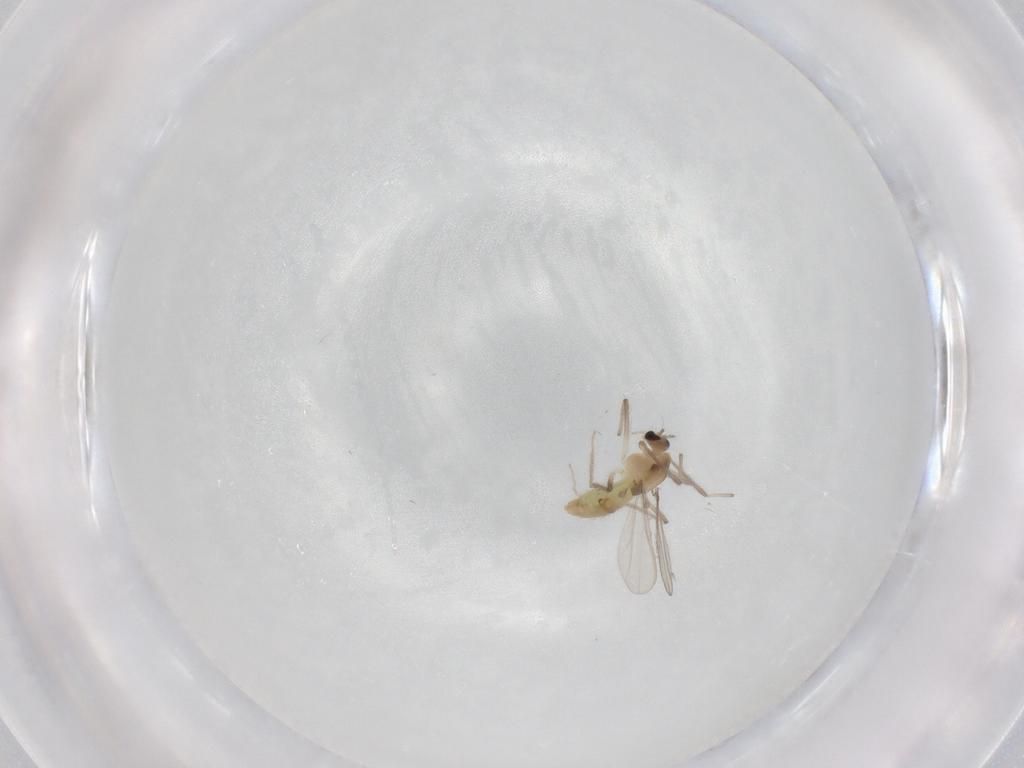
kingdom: Animalia
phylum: Arthropoda
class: Insecta
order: Diptera
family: Chironomidae
